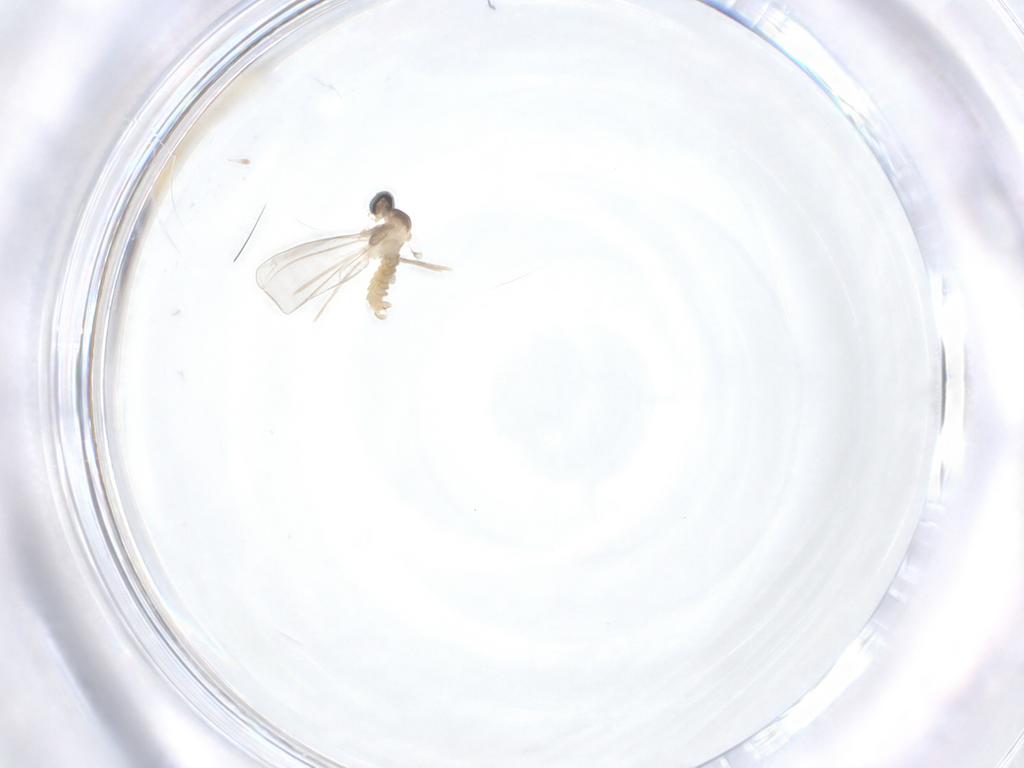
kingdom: Animalia
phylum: Arthropoda
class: Insecta
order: Diptera
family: Cecidomyiidae
